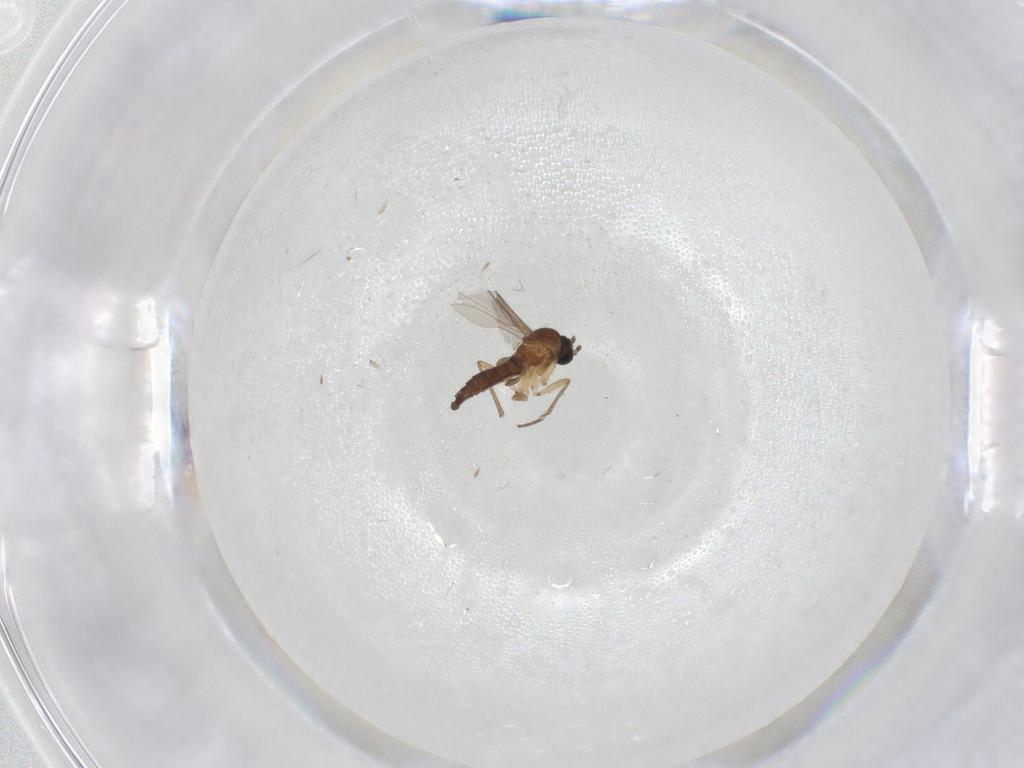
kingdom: Animalia
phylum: Arthropoda
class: Insecta
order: Diptera
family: Sciaridae
